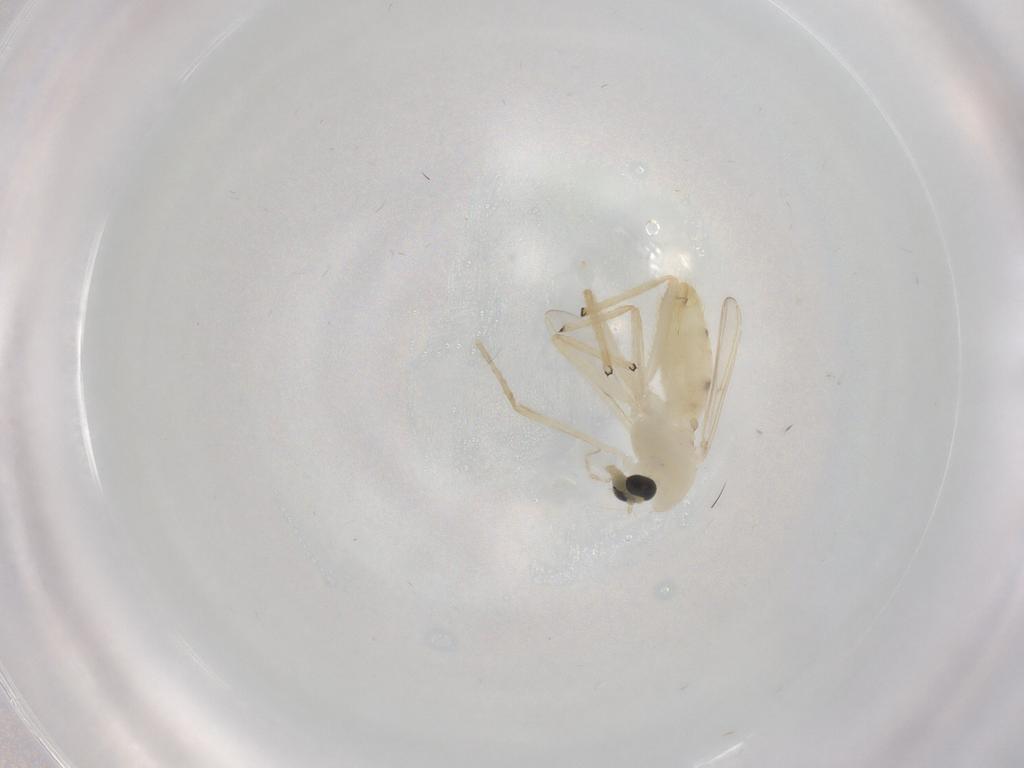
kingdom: Animalia
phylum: Arthropoda
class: Insecta
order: Diptera
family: Chironomidae
